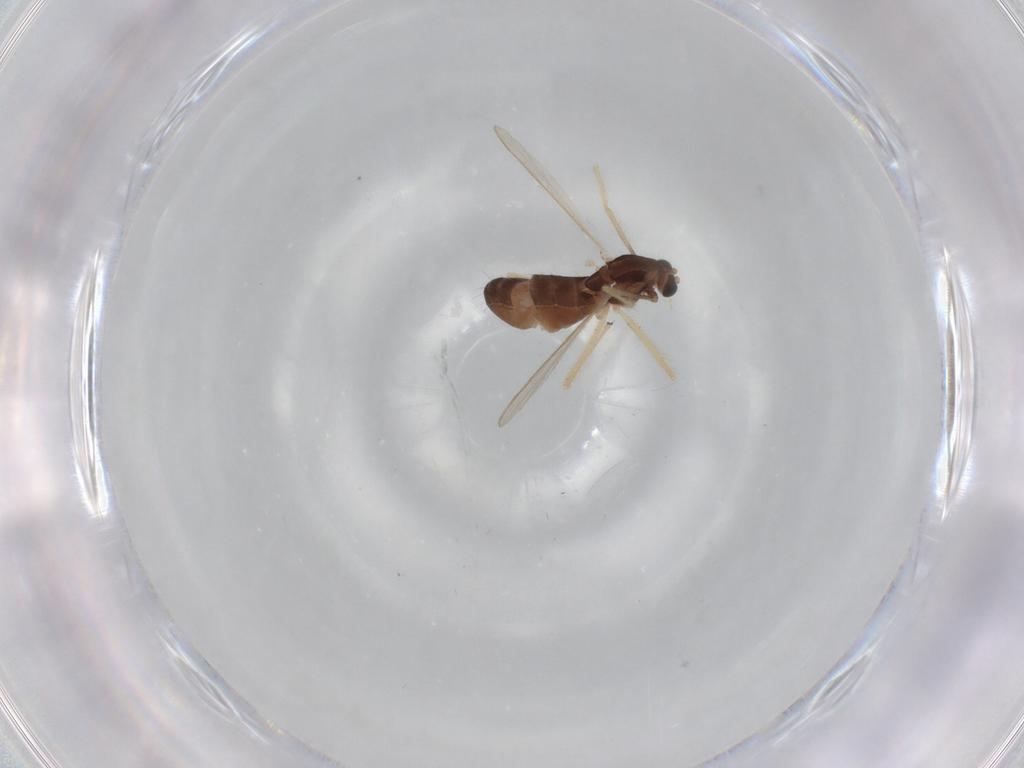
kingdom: Animalia
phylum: Arthropoda
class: Insecta
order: Diptera
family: Chironomidae
